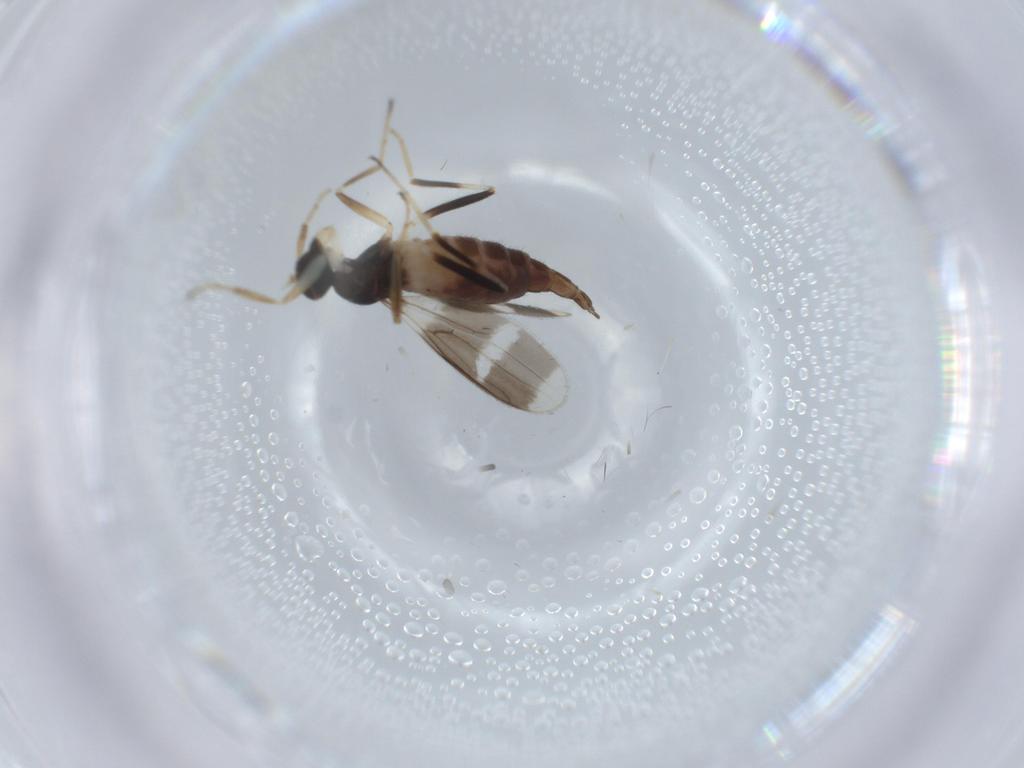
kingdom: Animalia
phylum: Arthropoda
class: Insecta
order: Diptera
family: Hybotidae
